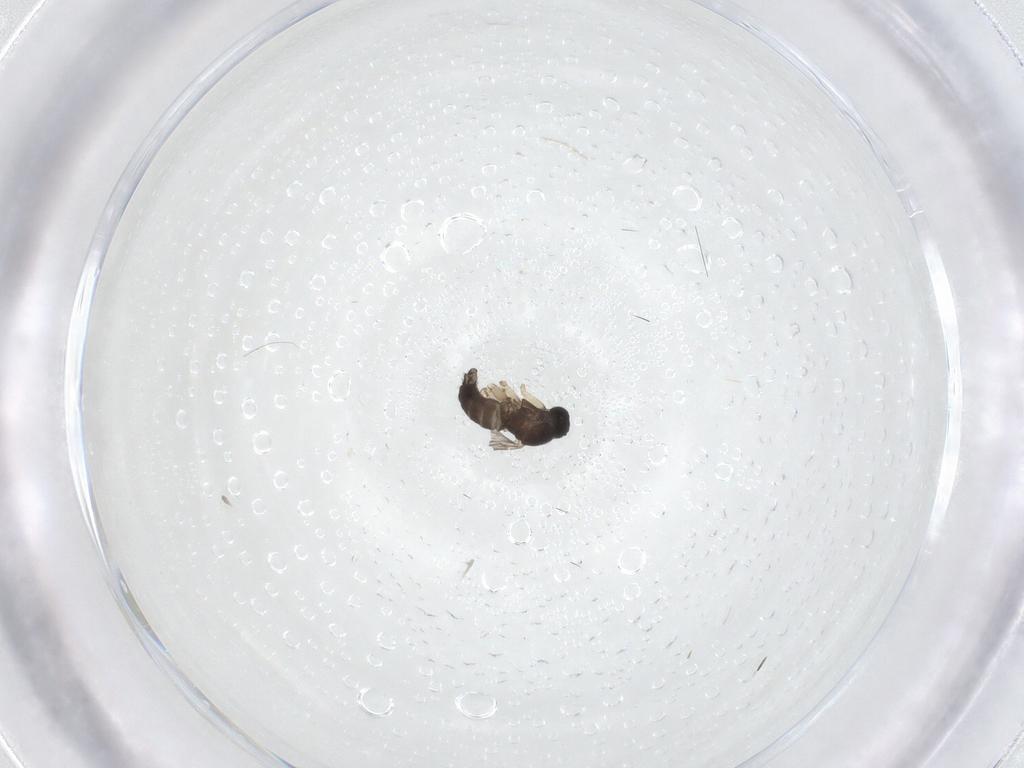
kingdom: Animalia
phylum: Arthropoda
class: Insecta
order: Diptera
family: Sciaridae
